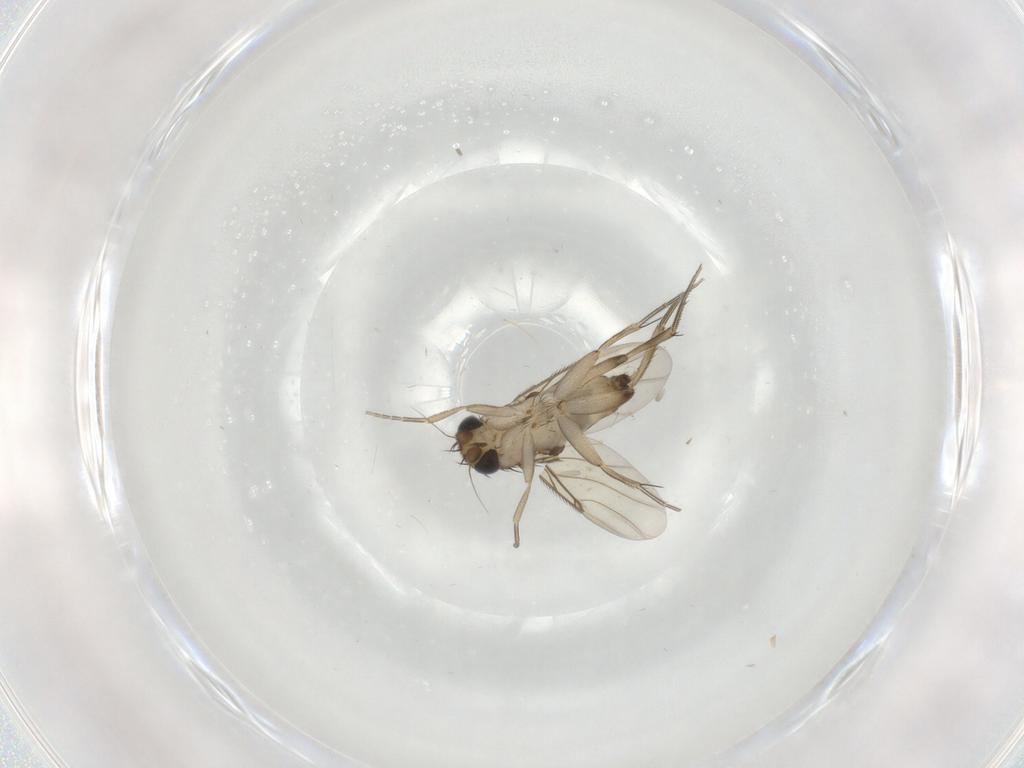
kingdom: Animalia
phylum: Arthropoda
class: Insecta
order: Diptera
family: Phoridae
